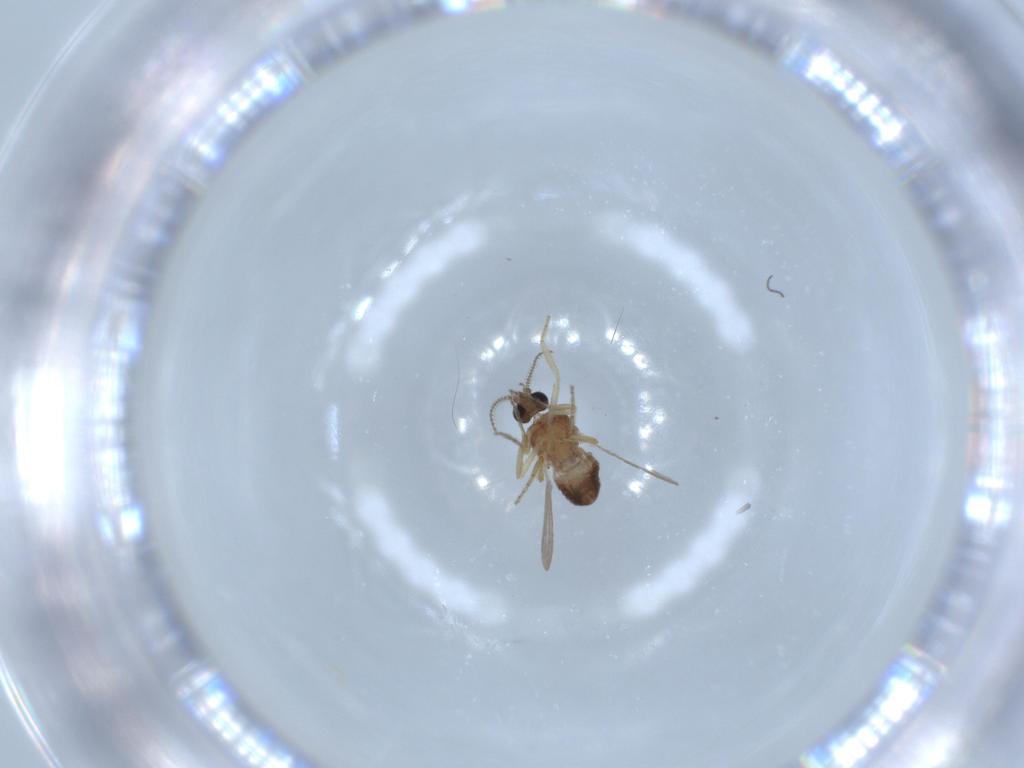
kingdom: Animalia
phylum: Arthropoda
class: Insecta
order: Diptera
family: Ceratopogonidae
